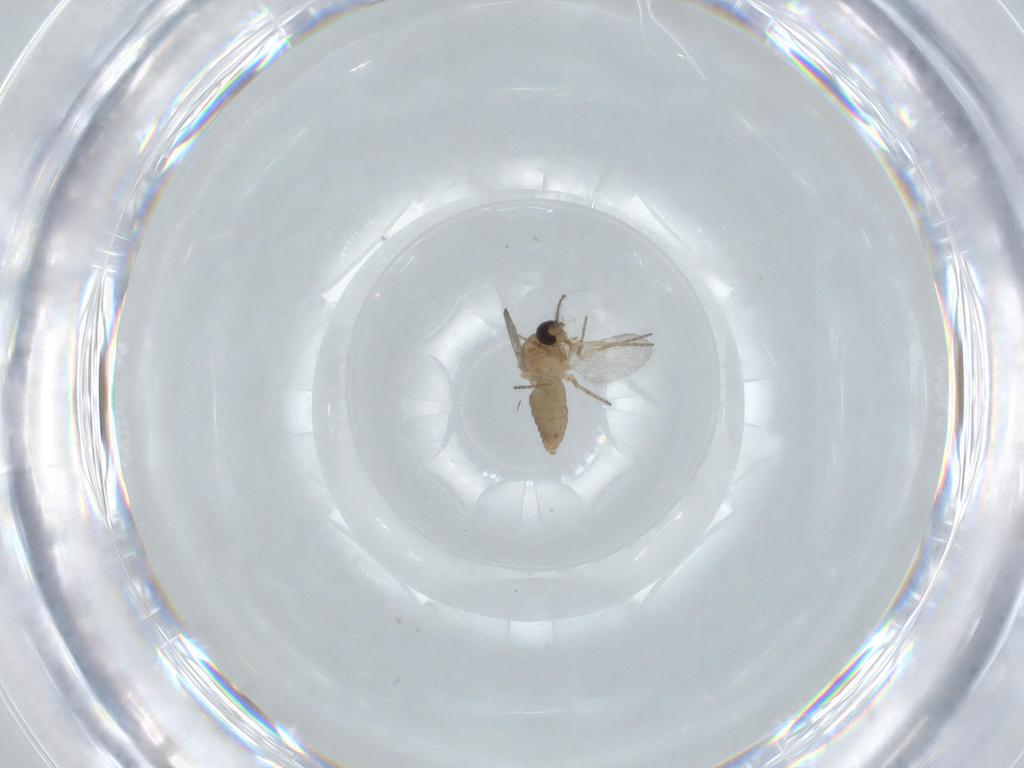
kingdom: Animalia
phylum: Arthropoda
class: Insecta
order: Diptera
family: Ceratopogonidae
